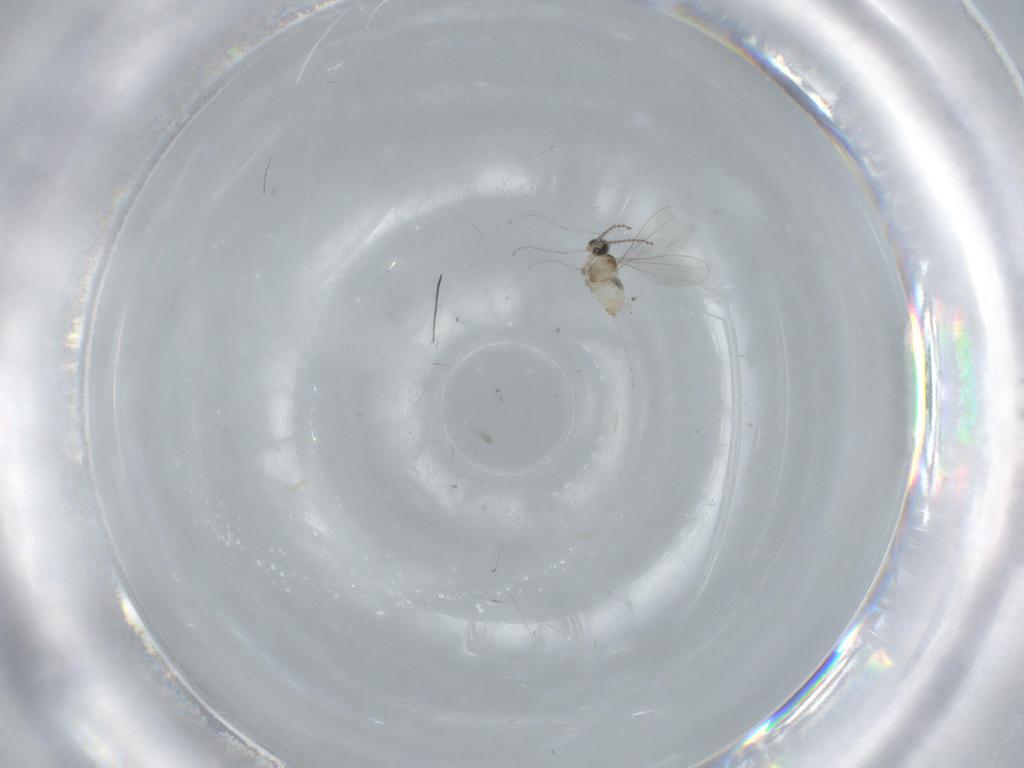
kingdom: Animalia
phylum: Arthropoda
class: Insecta
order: Diptera
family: Cecidomyiidae
